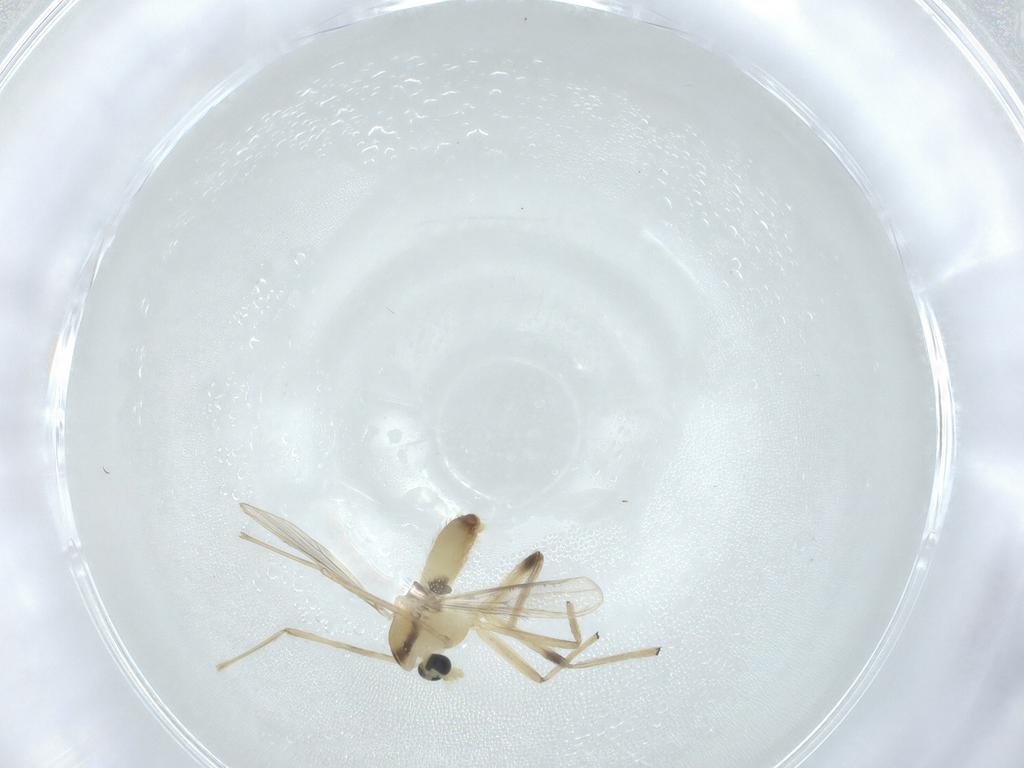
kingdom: Animalia
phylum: Arthropoda
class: Insecta
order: Diptera
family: Chironomidae
